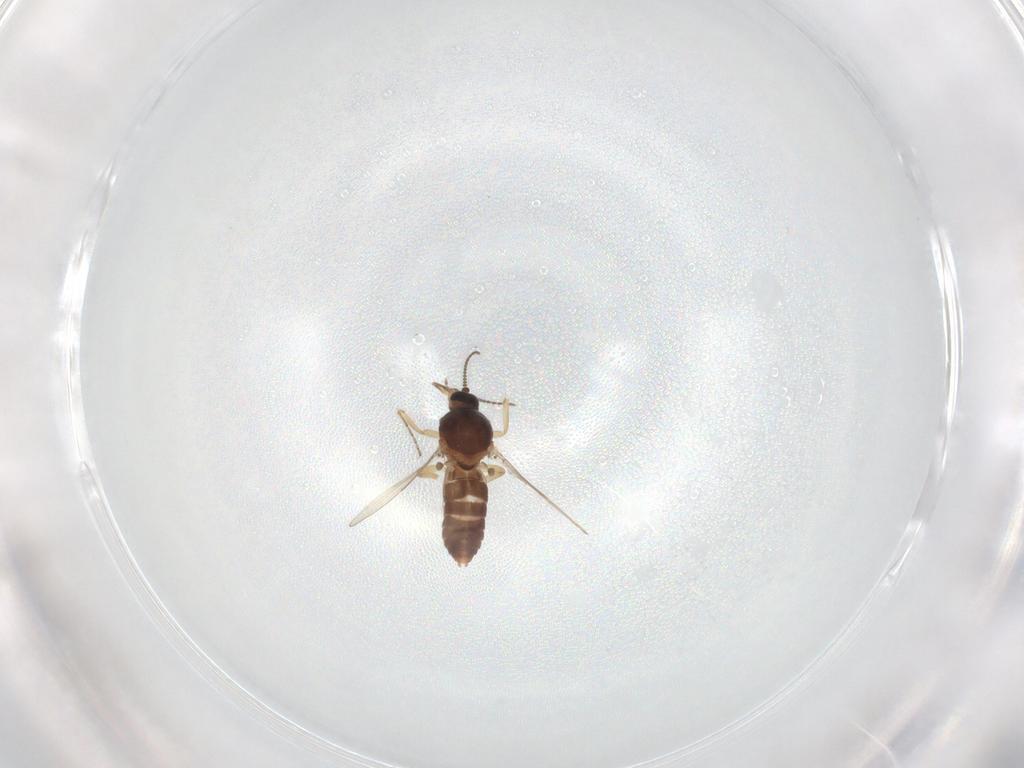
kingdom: Animalia
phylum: Arthropoda
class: Insecta
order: Diptera
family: Ceratopogonidae
